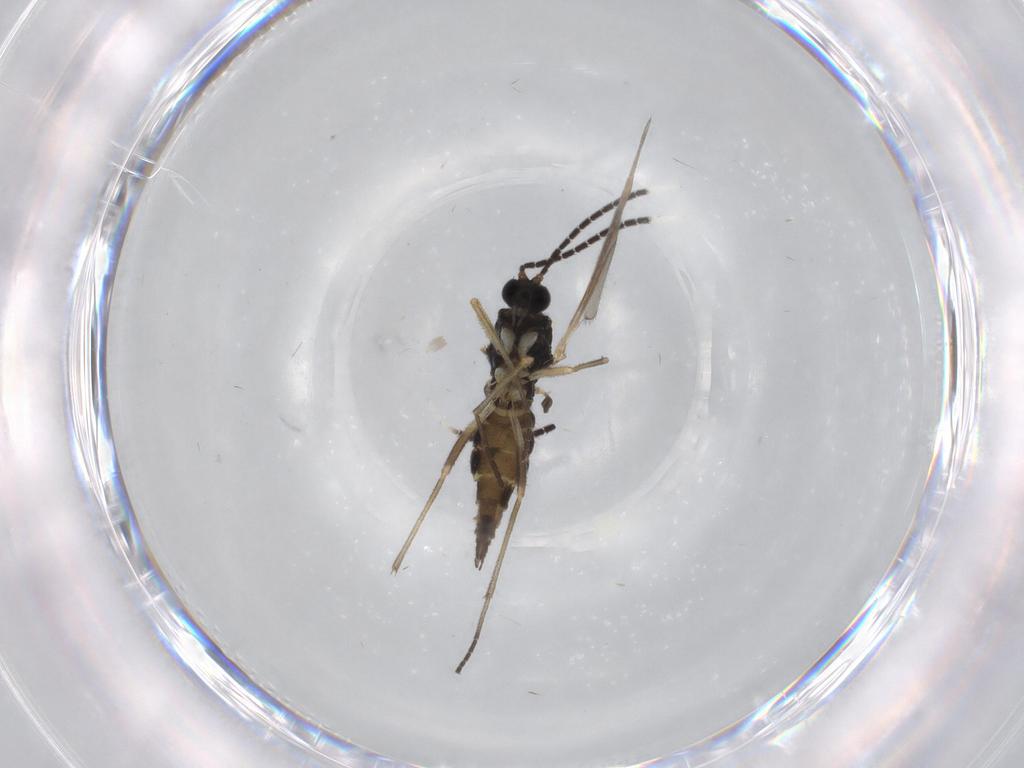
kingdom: Animalia
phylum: Arthropoda
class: Insecta
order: Diptera
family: Sciaridae
